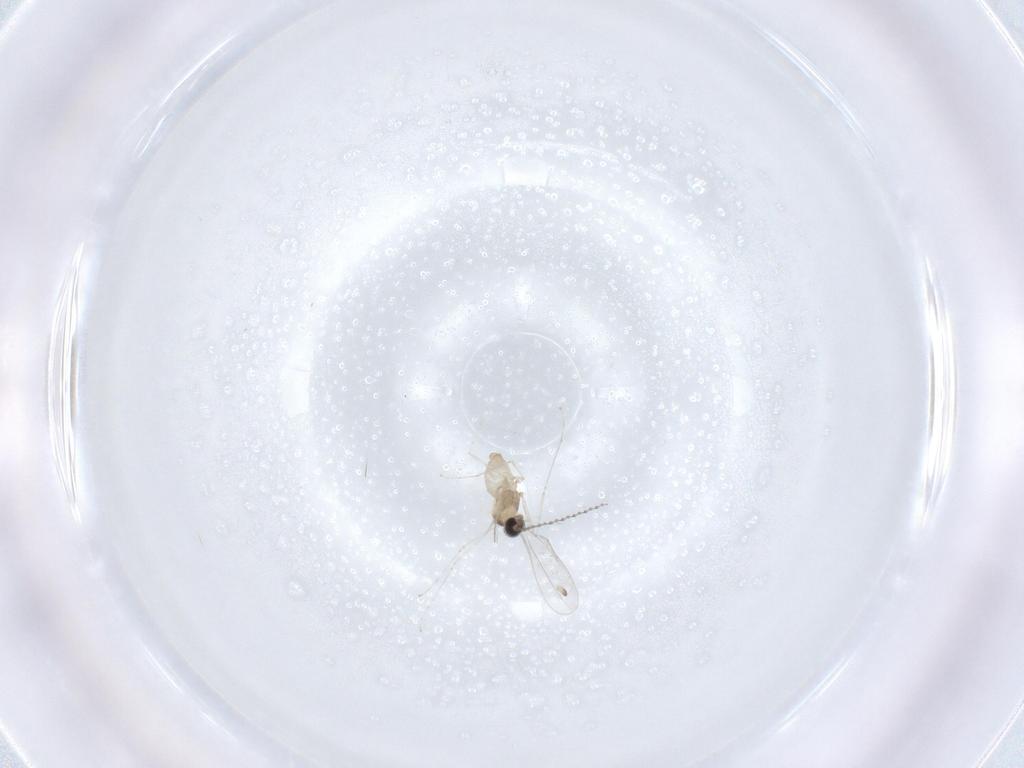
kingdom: Animalia
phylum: Arthropoda
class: Insecta
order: Diptera
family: Cecidomyiidae
